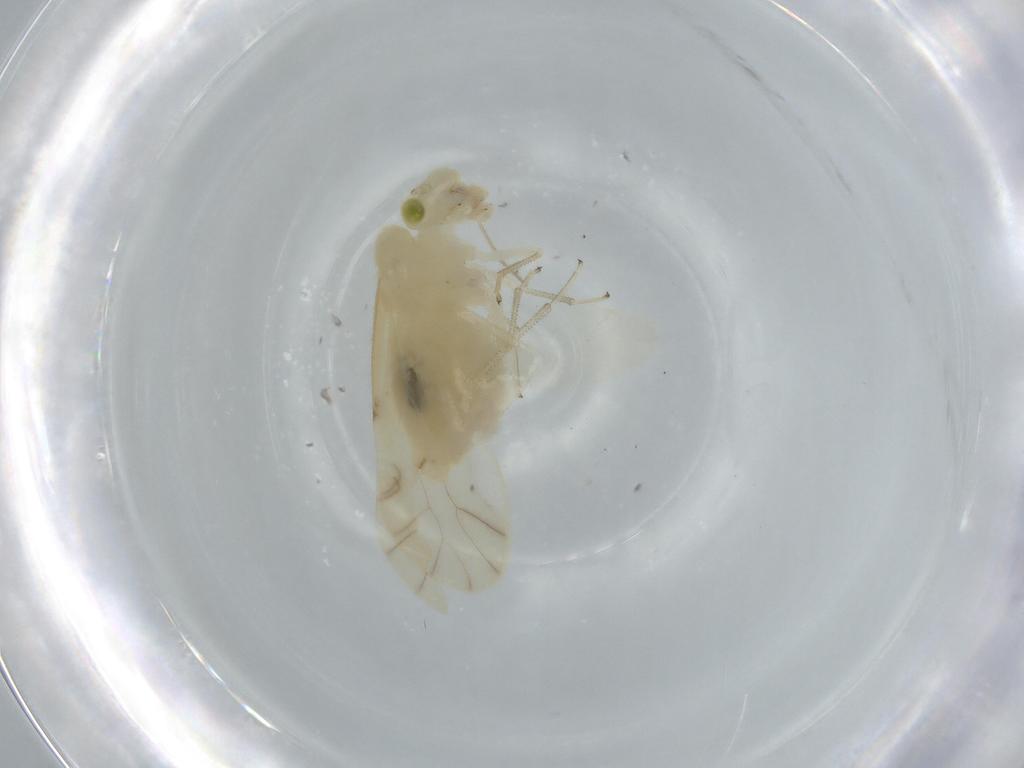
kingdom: Animalia
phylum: Arthropoda
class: Insecta
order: Psocodea
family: Caeciliusidae
